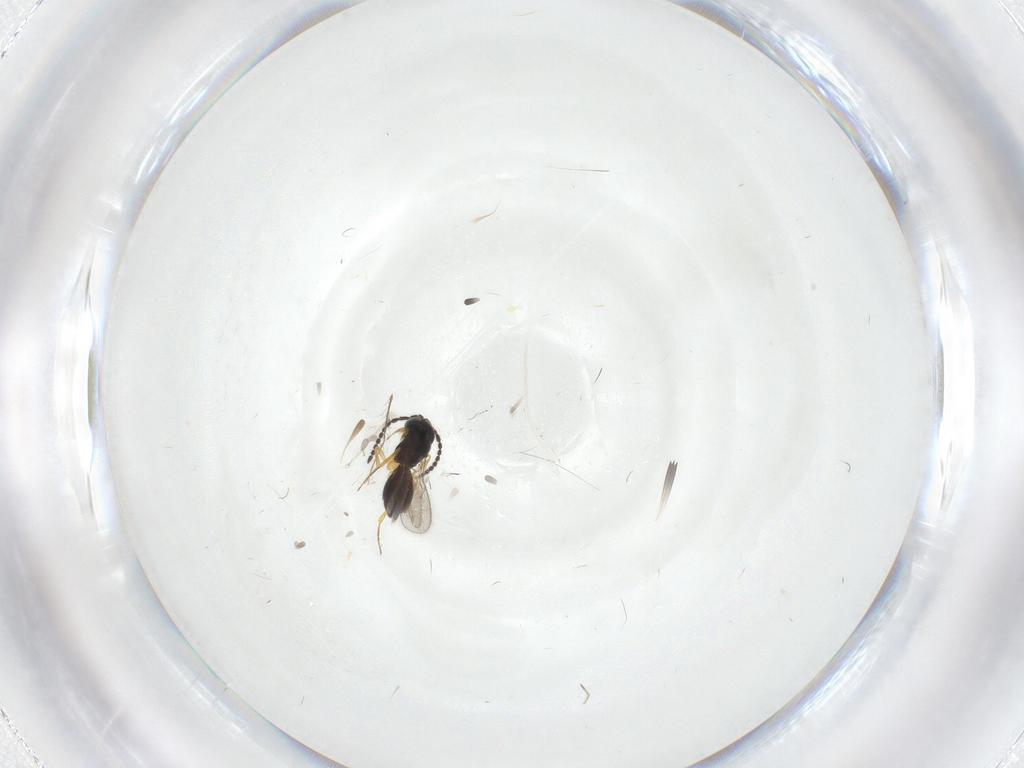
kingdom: Animalia
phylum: Arthropoda
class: Insecta
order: Hymenoptera
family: Scelionidae
